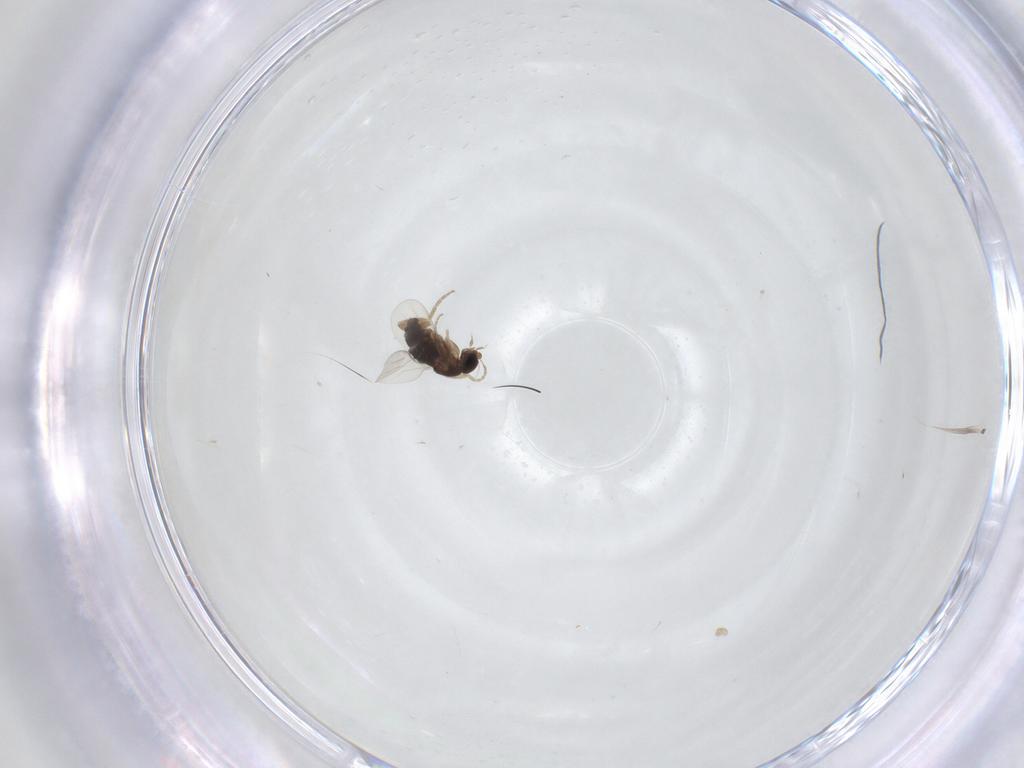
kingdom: Animalia
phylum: Arthropoda
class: Insecta
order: Diptera
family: Phoridae
